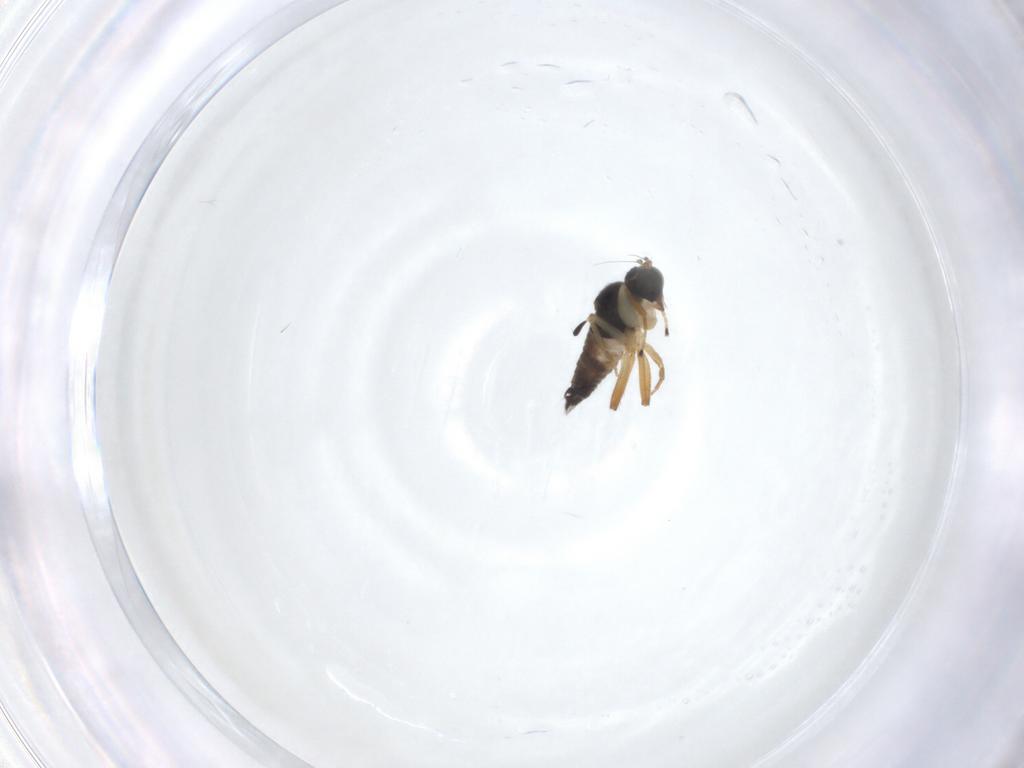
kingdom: Animalia
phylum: Arthropoda
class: Insecta
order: Diptera
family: Hybotidae
